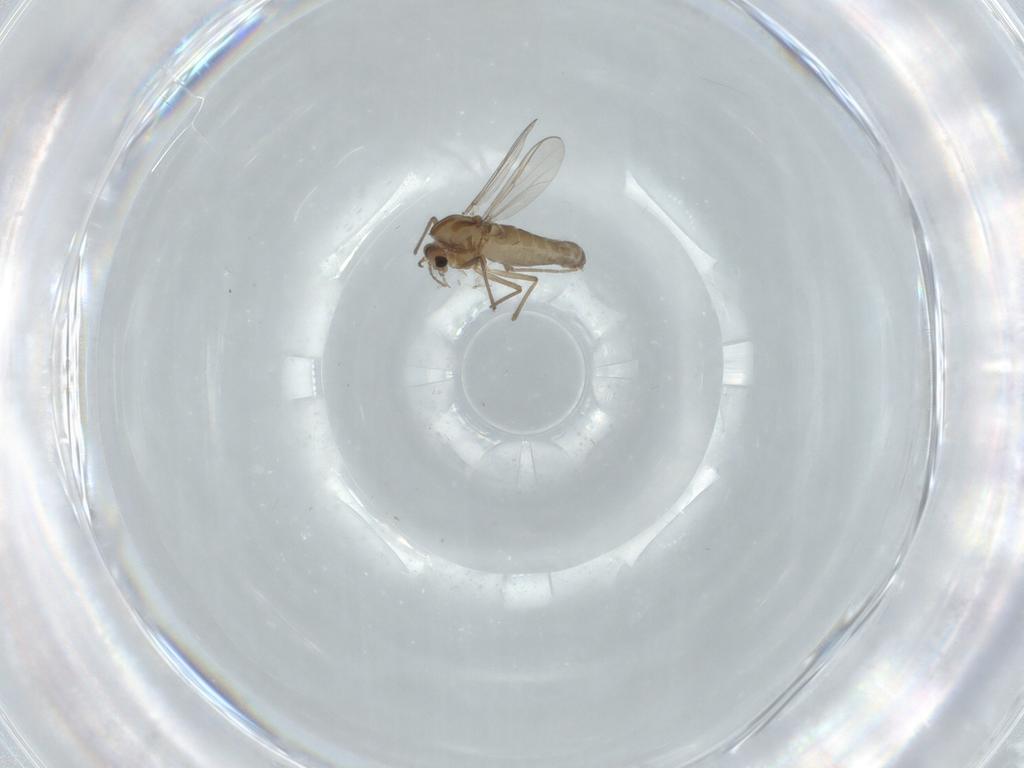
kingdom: Animalia
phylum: Arthropoda
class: Insecta
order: Diptera
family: Chironomidae
